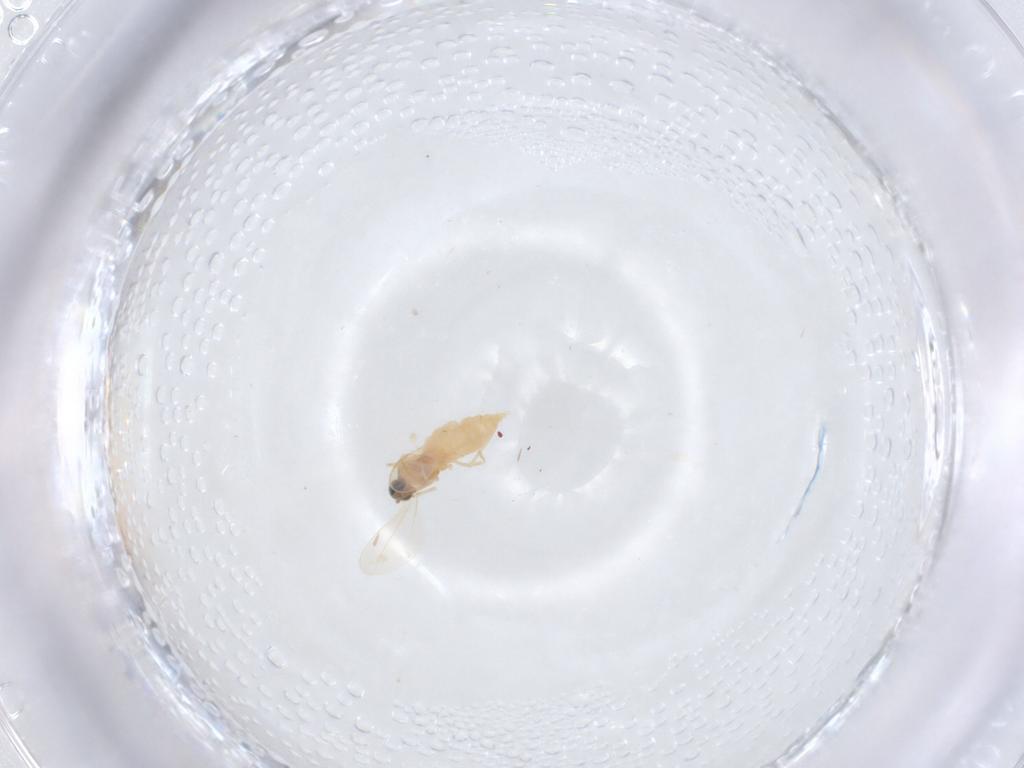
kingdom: Animalia
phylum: Arthropoda
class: Insecta
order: Diptera
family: Cecidomyiidae
